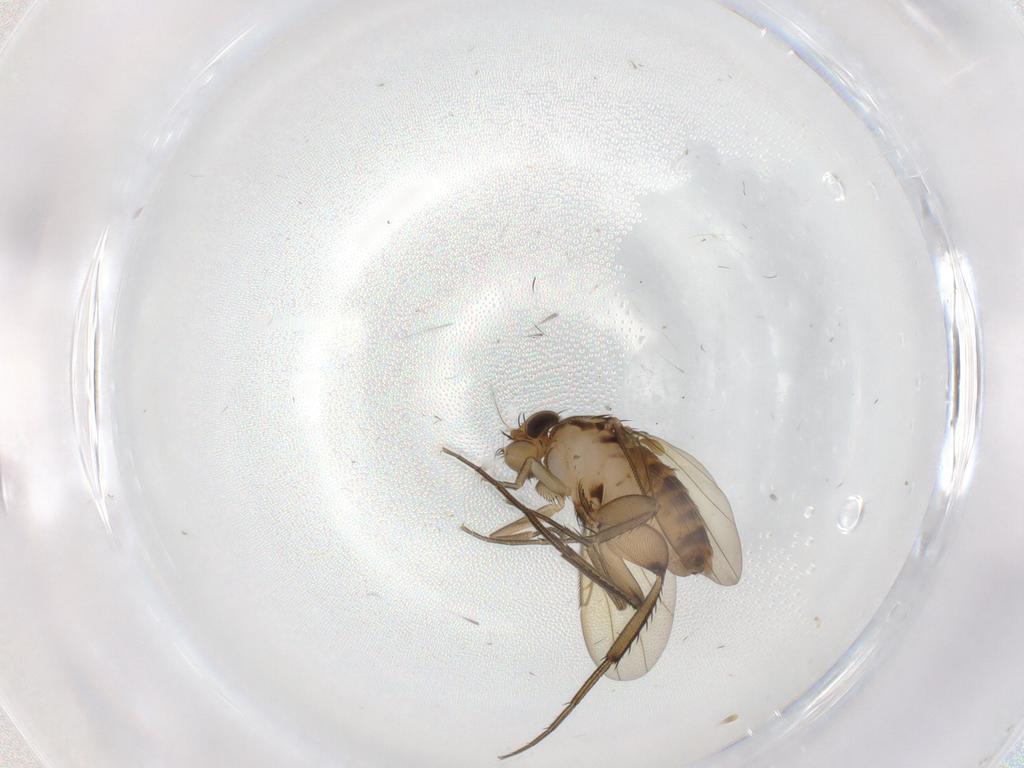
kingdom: Animalia
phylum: Arthropoda
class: Insecta
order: Diptera
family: Phoridae
